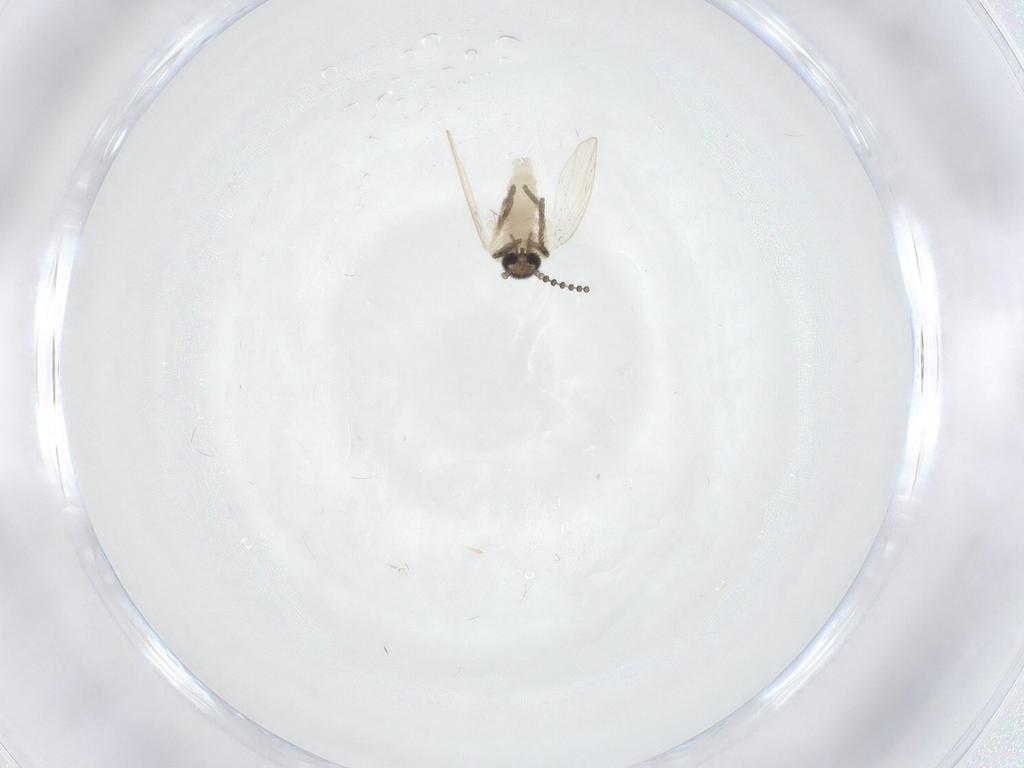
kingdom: Animalia
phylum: Arthropoda
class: Insecta
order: Diptera
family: Psychodidae
